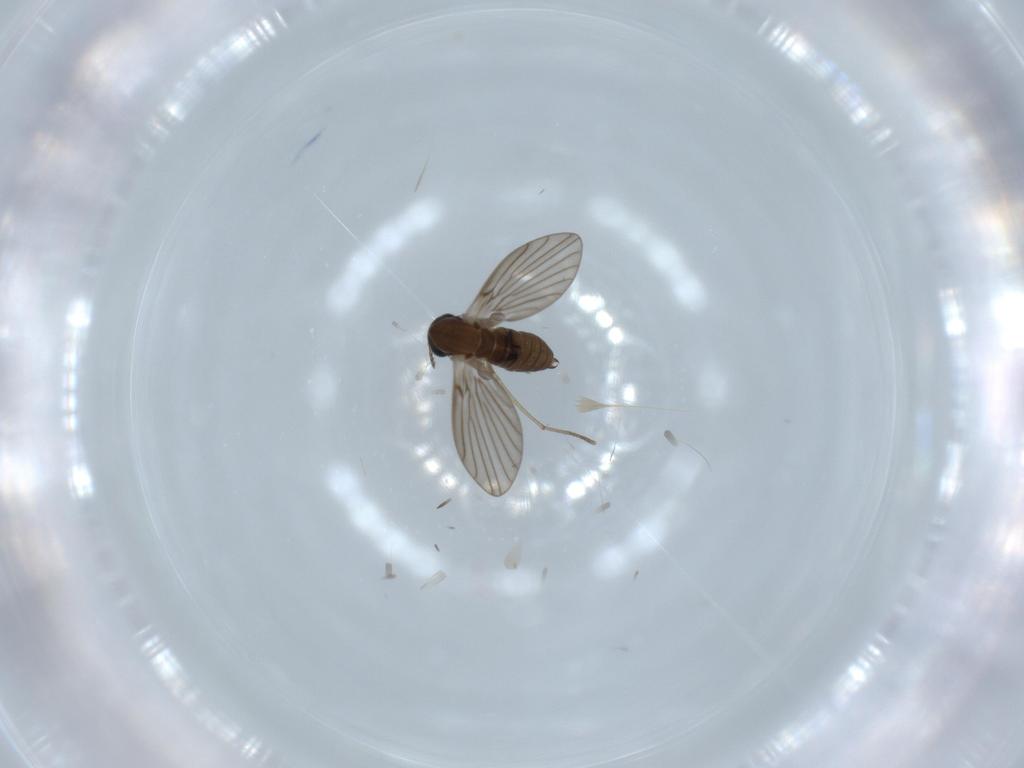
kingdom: Animalia
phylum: Arthropoda
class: Insecta
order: Diptera
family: Psychodidae
